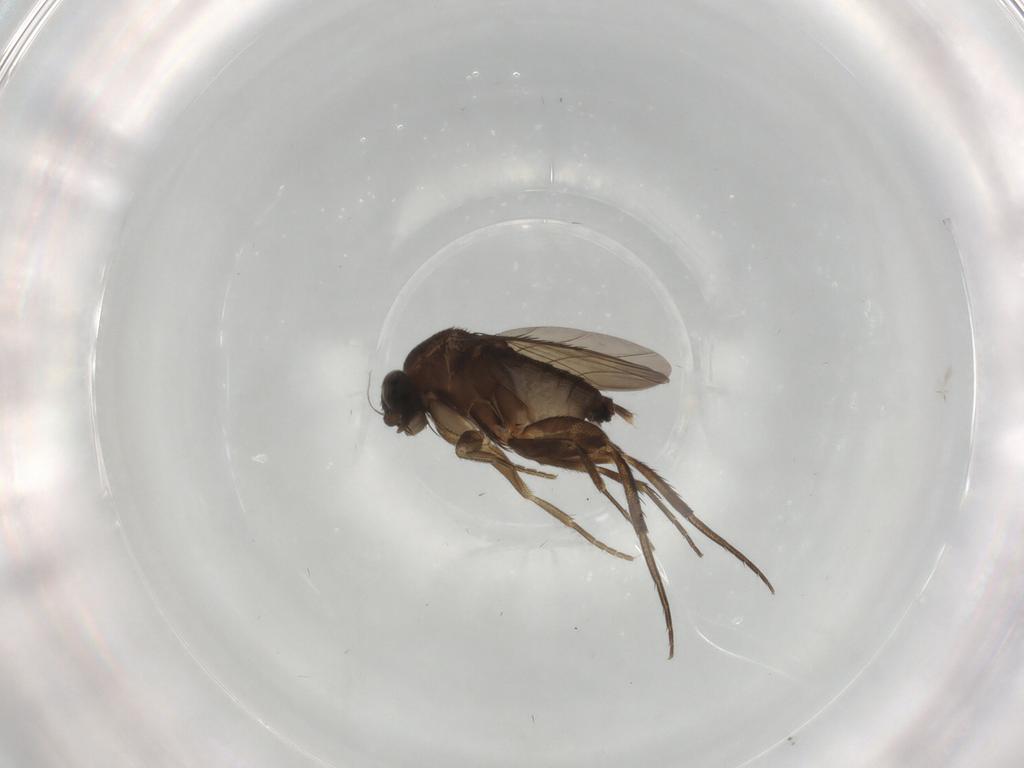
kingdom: Animalia
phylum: Arthropoda
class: Insecta
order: Diptera
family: Phoridae
